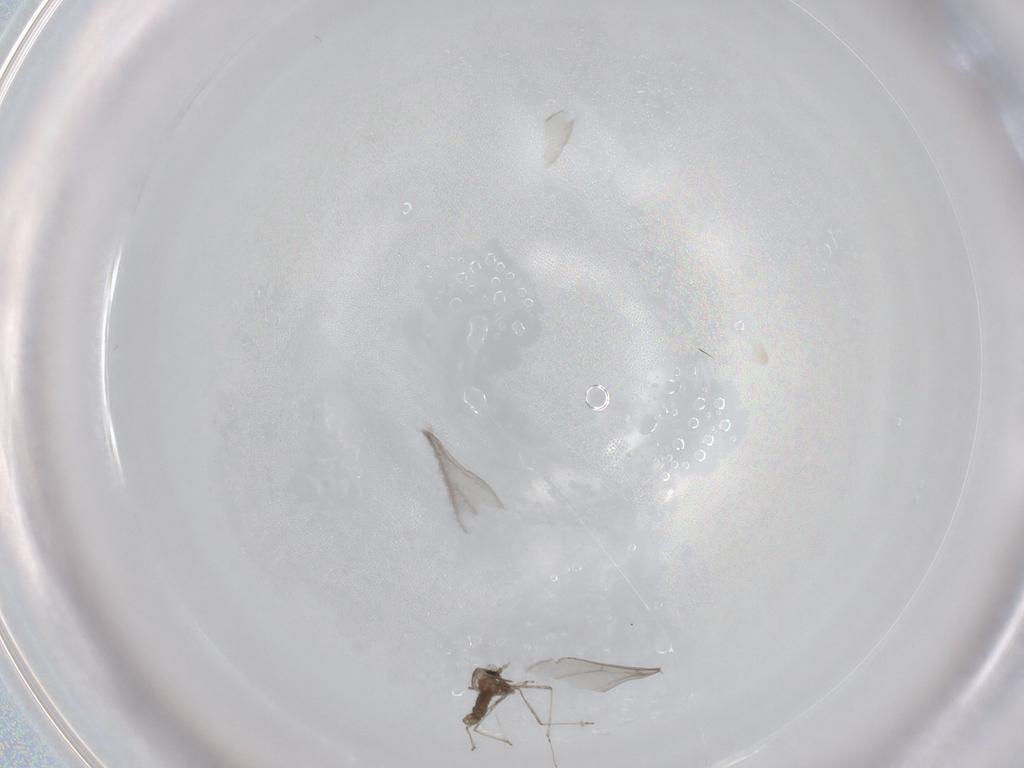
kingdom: Animalia
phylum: Arthropoda
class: Insecta
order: Diptera
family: Cecidomyiidae
